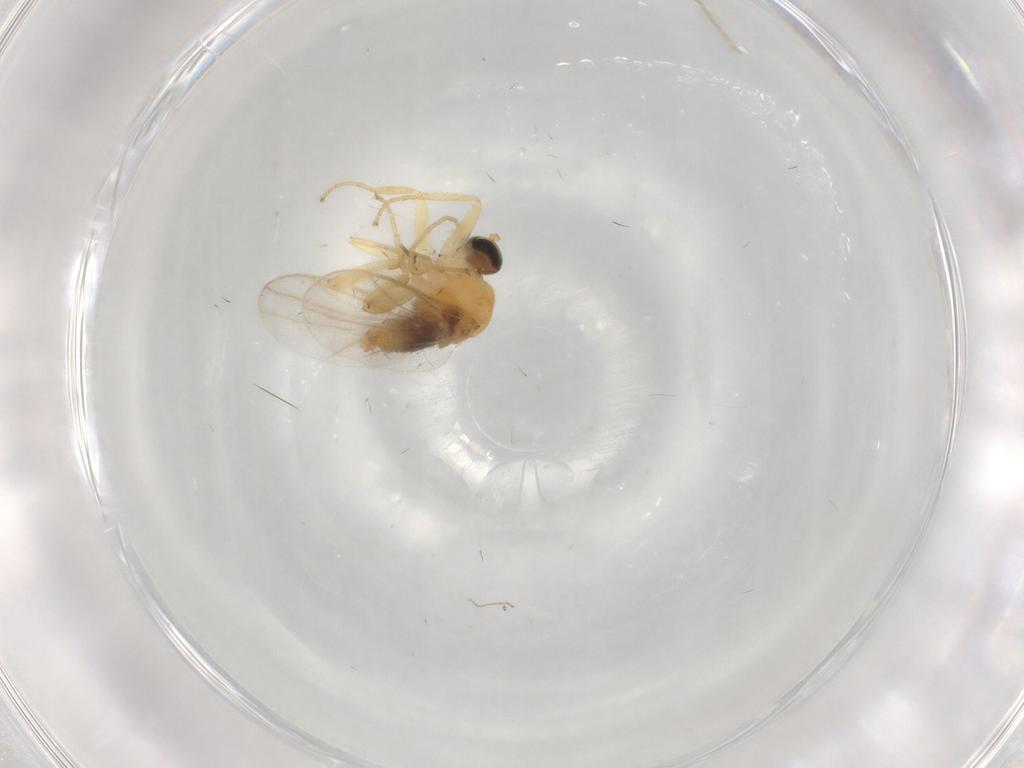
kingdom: Animalia
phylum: Arthropoda
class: Insecta
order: Diptera
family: Hybotidae
